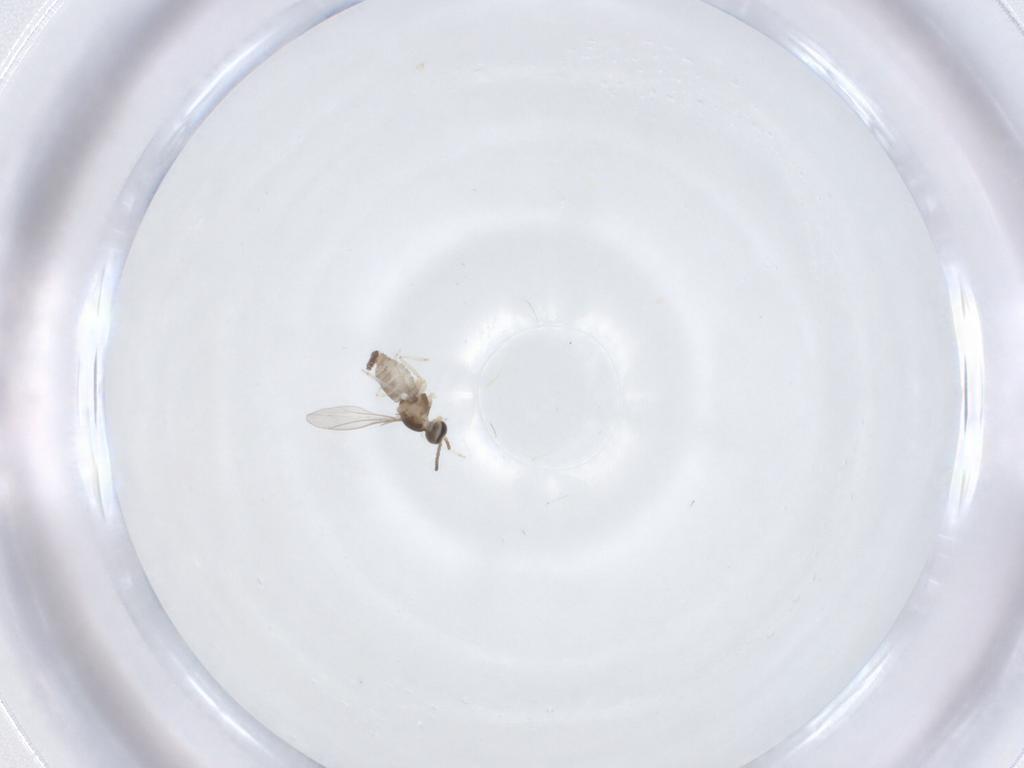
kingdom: Animalia
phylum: Arthropoda
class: Insecta
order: Diptera
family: Cecidomyiidae
